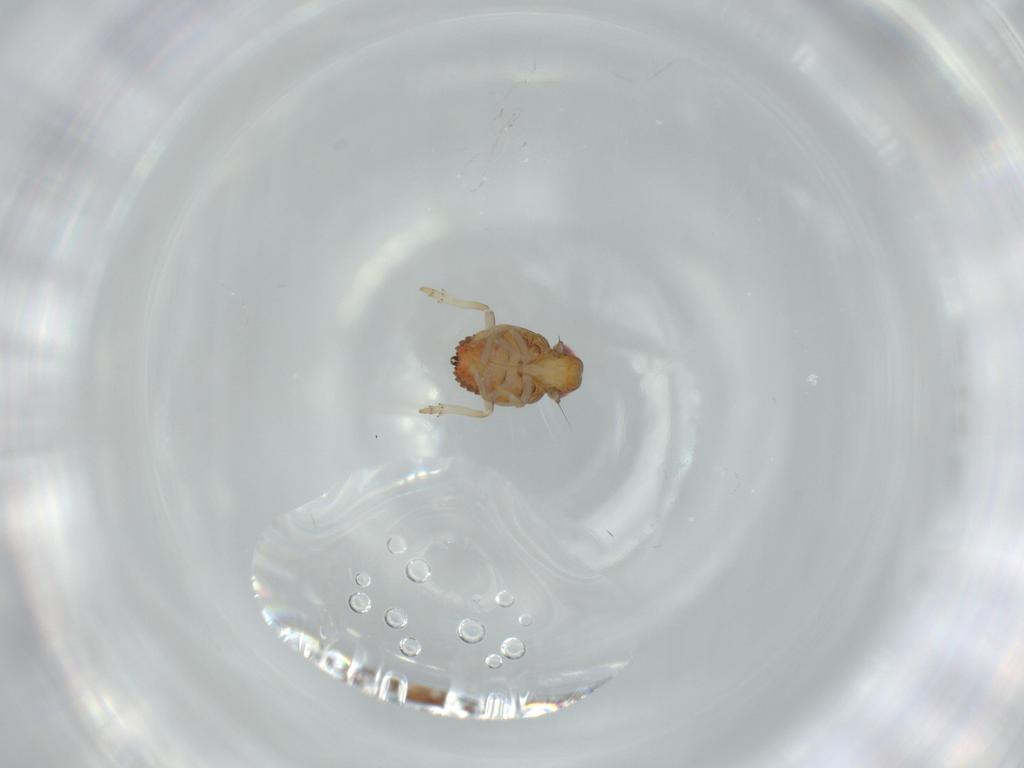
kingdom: Animalia
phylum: Arthropoda
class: Insecta
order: Hemiptera
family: Issidae
